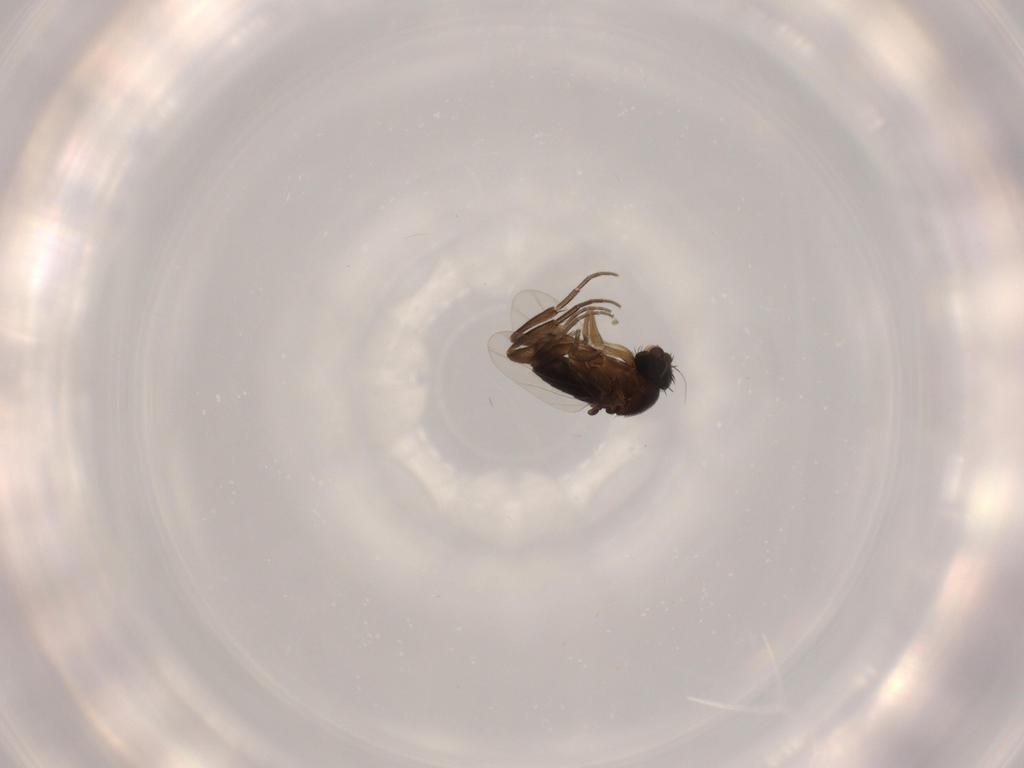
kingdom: Animalia
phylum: Arthropoda
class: Insecta
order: Diptera
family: Phoridae
